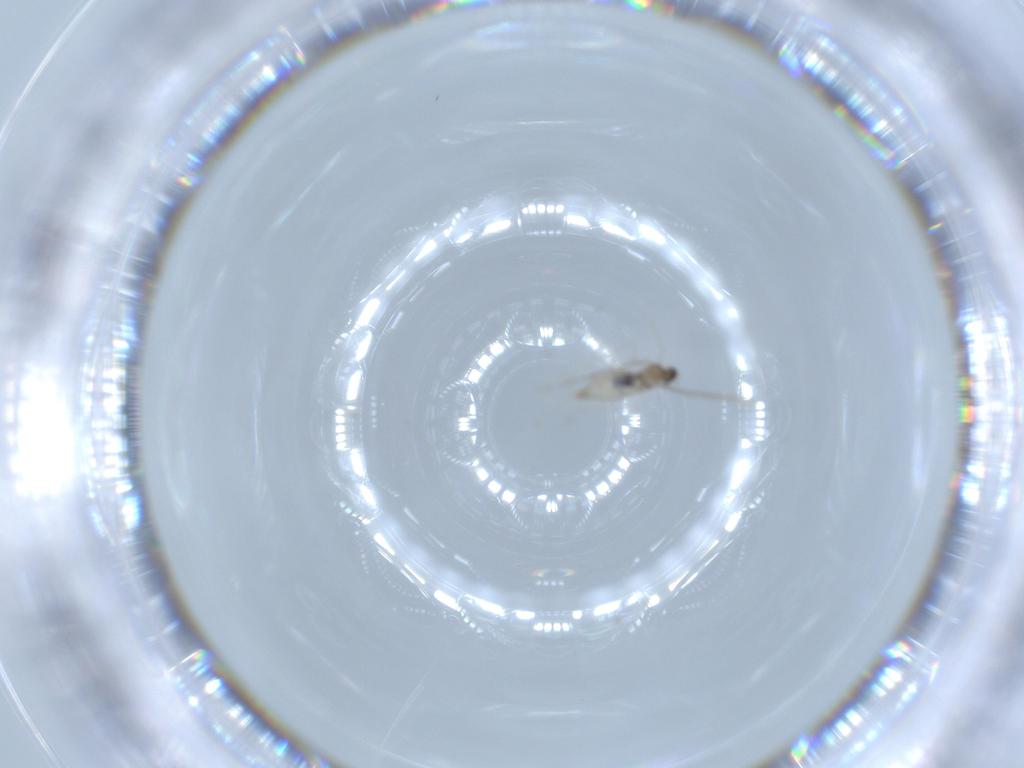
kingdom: Animalia
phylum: Arthropoda
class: Insecta
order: Diptera
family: Cecidomyiidae
